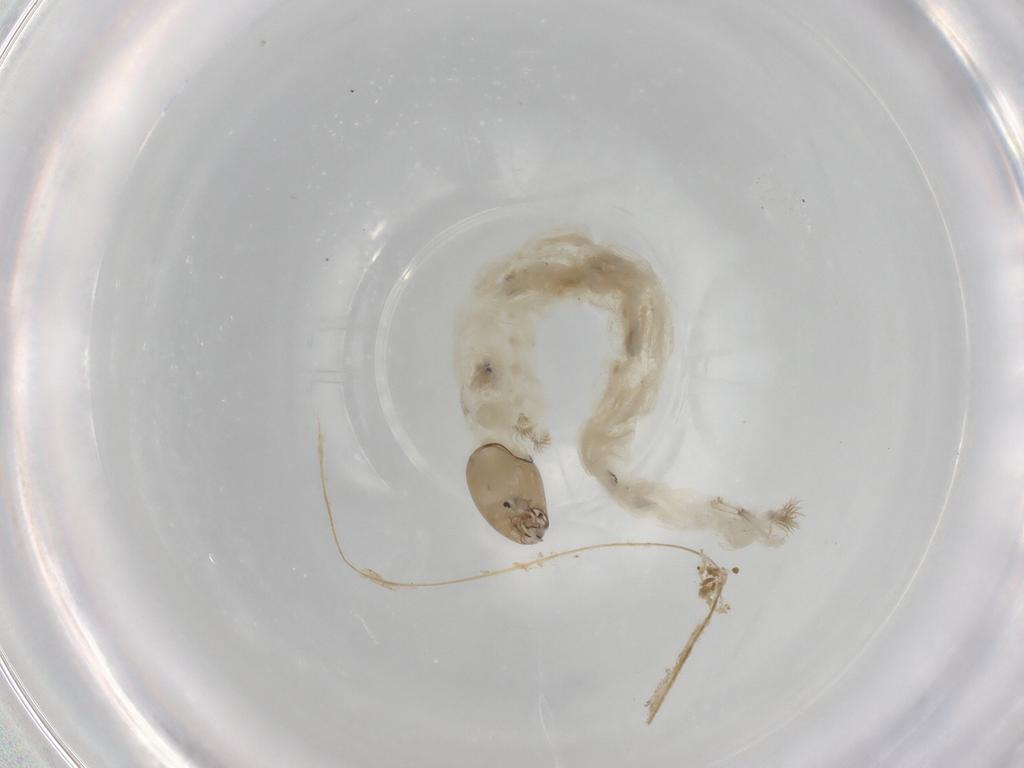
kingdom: Animalia
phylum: Arthropoda
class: Insecta
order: Diptera
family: Chironomidae
